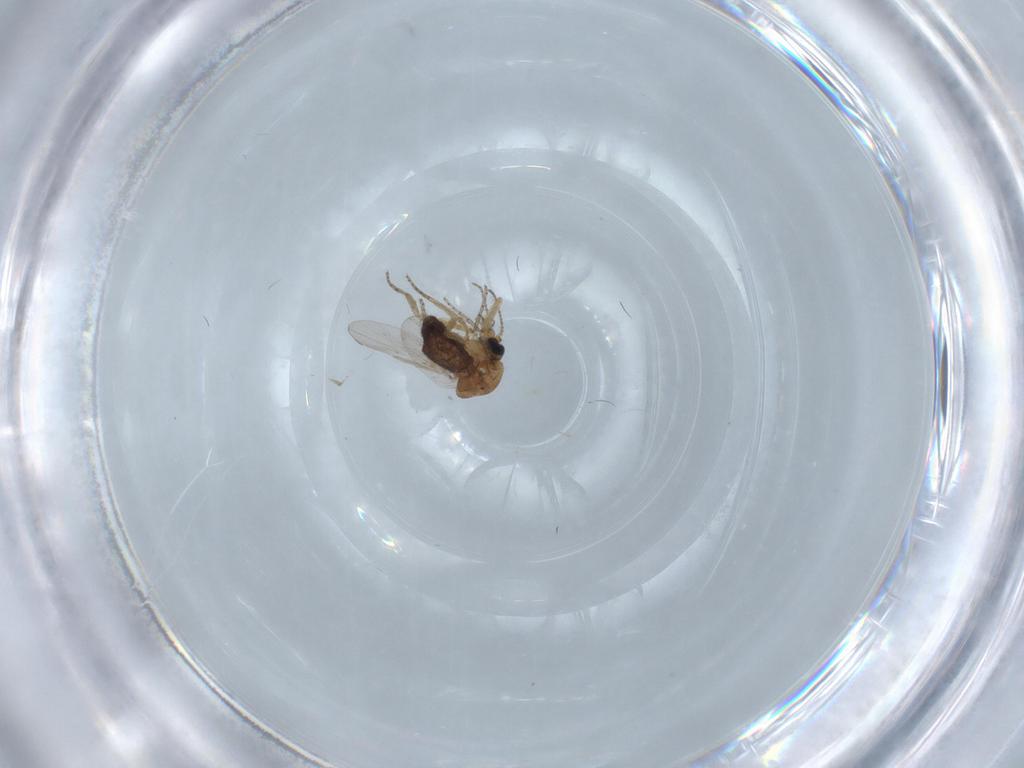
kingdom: Animalia
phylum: Arthropoda
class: Insecta
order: Diptera
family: Ceratopogonidae
